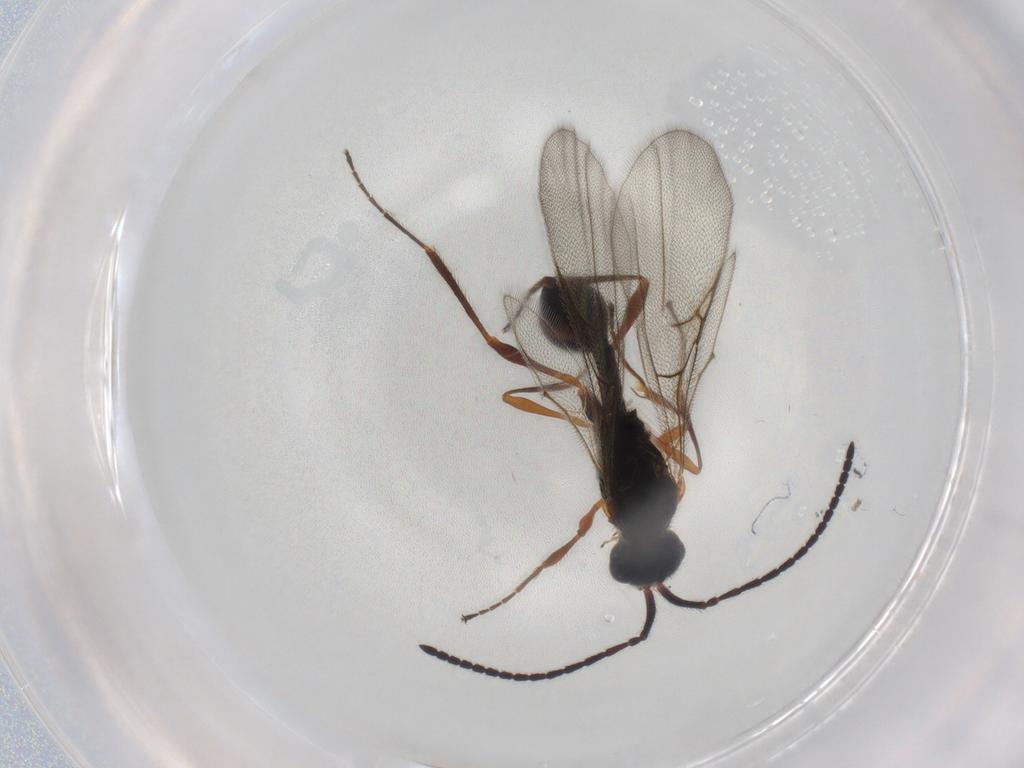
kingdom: Animalia
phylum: Arthropoda
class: Insecta
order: Hymenoptera
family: Diapriidae
